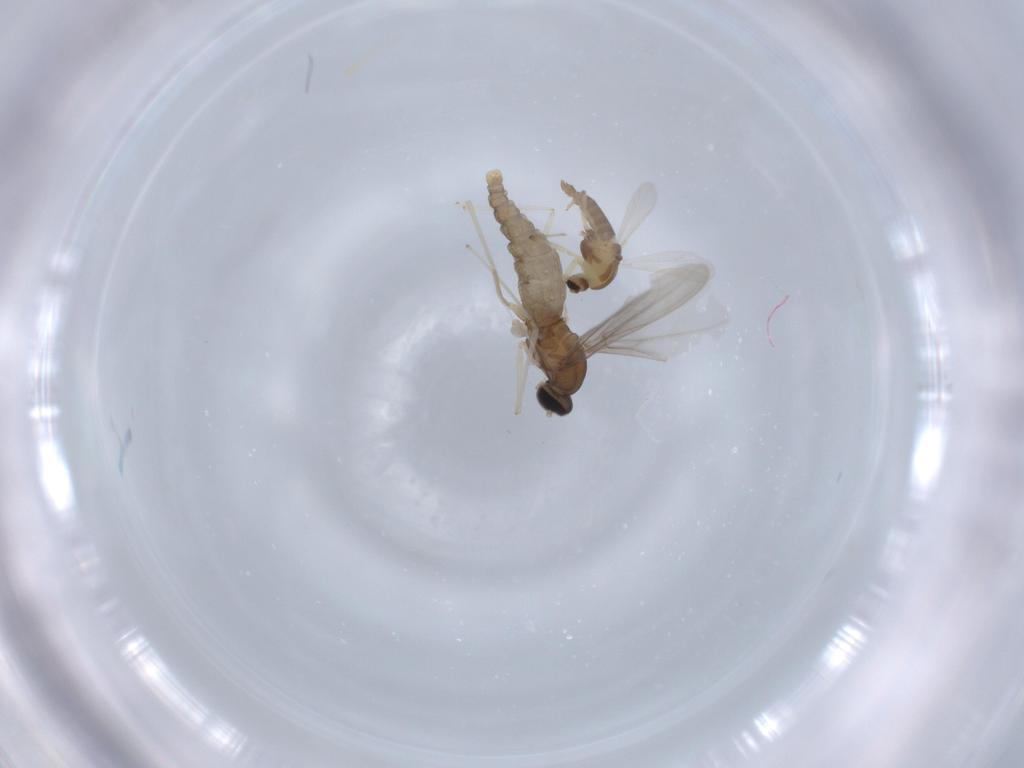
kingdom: Animalia
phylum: Arthropoda
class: Insecta
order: Diptera
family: Cecidomyiidae
